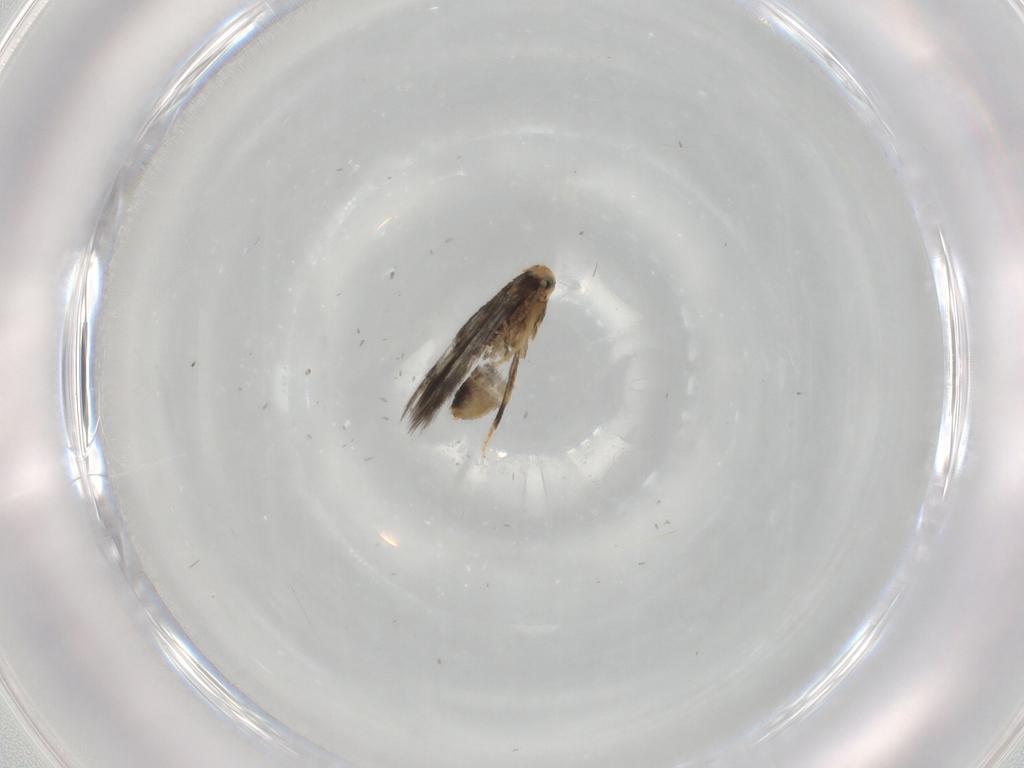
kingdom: Animalia
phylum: Arthropoda
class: Insecta
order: Lepidoptera
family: Nepticulidae
